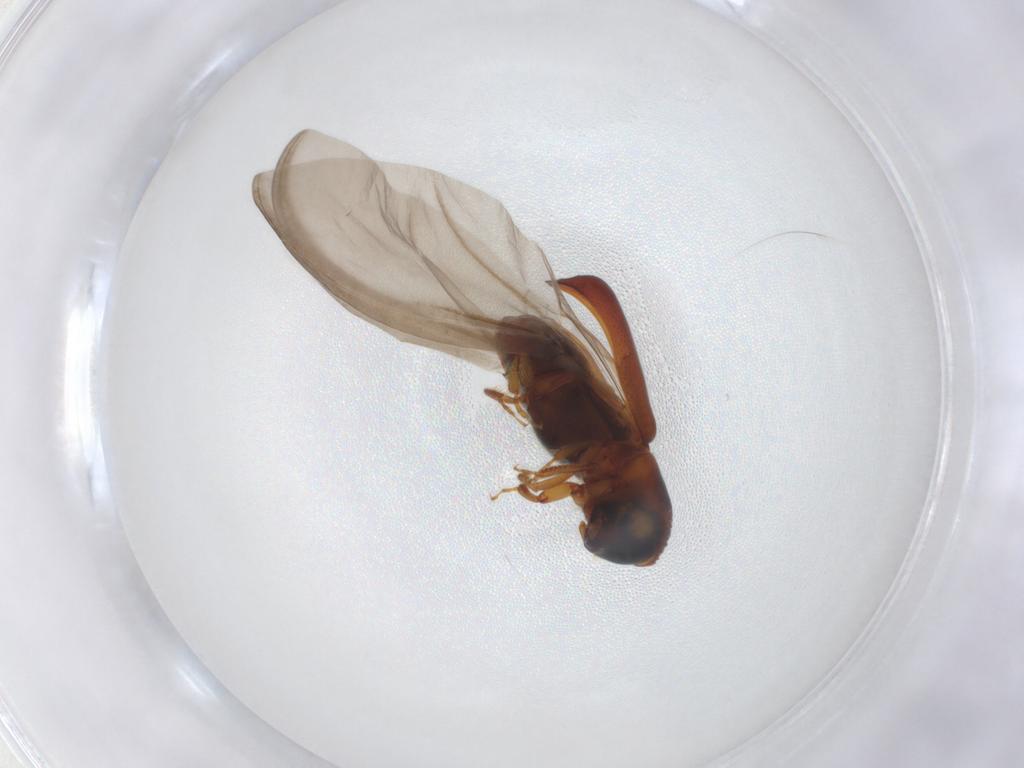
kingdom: Animalia
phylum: Arthropoda
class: Insecta
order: Coleoptera
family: Curculionidae
